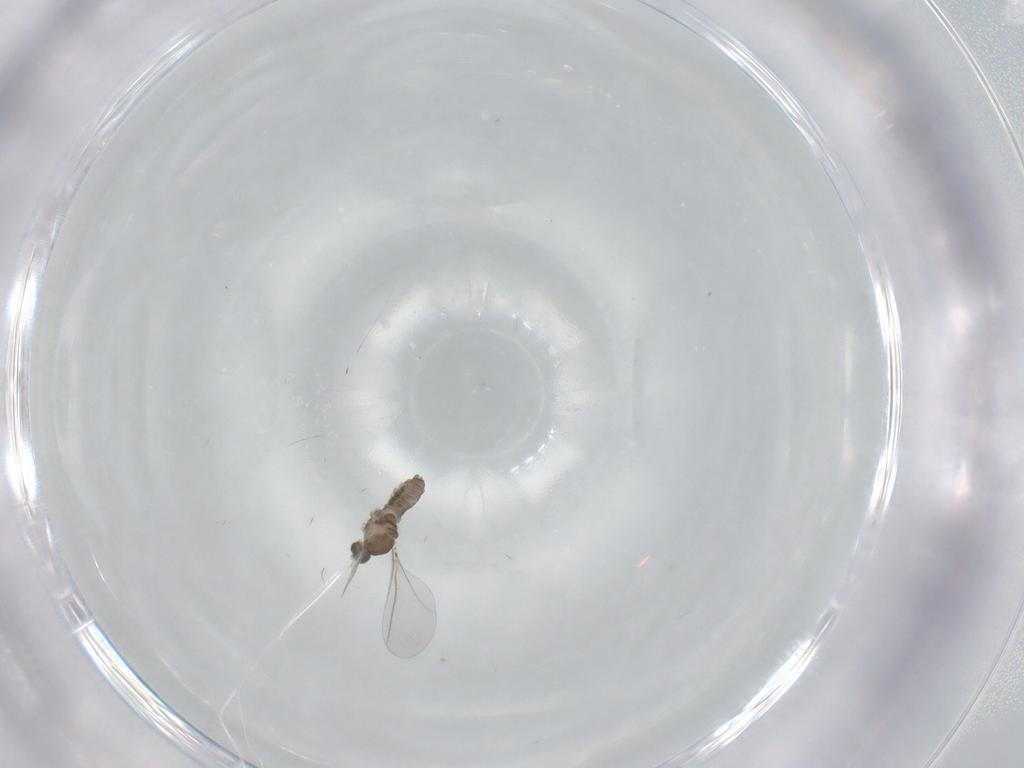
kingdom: Animalia
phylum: Arthropoda
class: Insecta
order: Diptera
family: Cecidomyiidae
